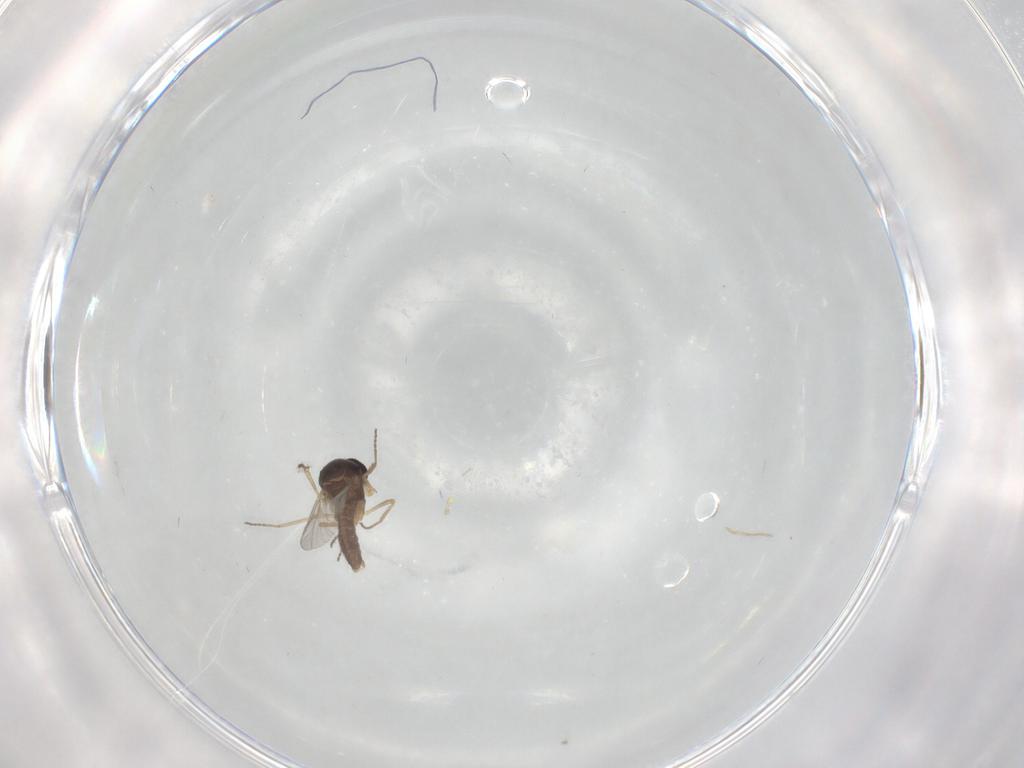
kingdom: Animalia
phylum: Arthropoda
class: Insecta
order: Diptera
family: Ceratopogonidae
